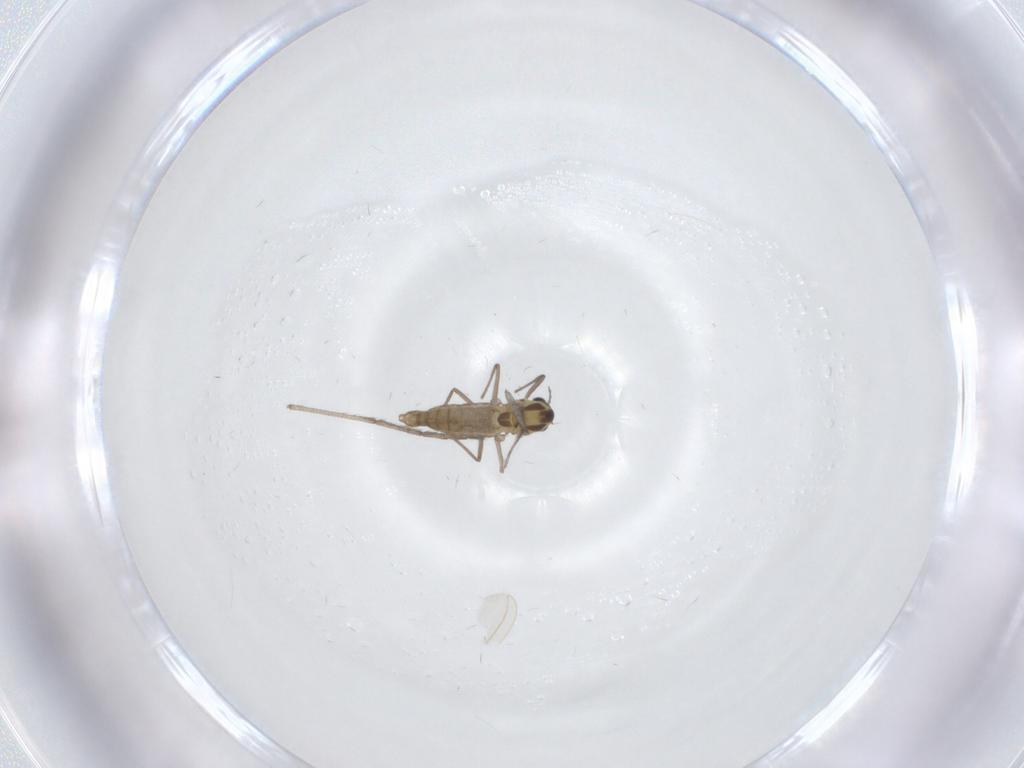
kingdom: Animalia
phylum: Arthropoda
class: Insecta
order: Diptera
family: Chironomidae
